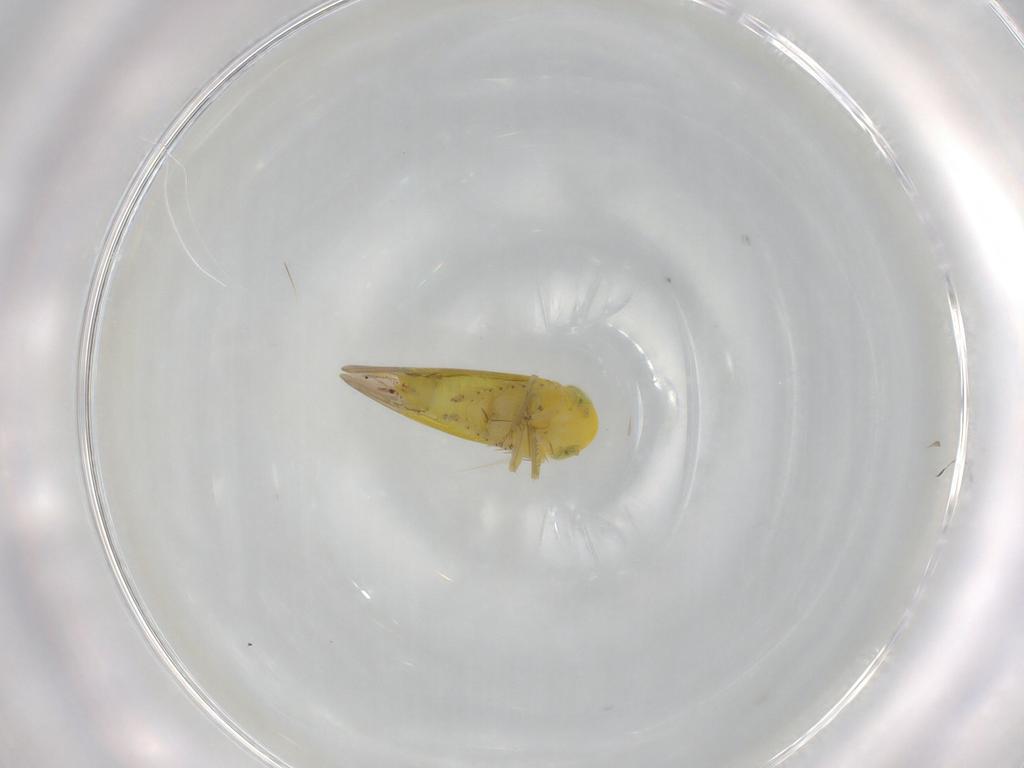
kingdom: Animalia
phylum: Arthropoda
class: Insecta
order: Hemiptera
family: Cicadellidae
